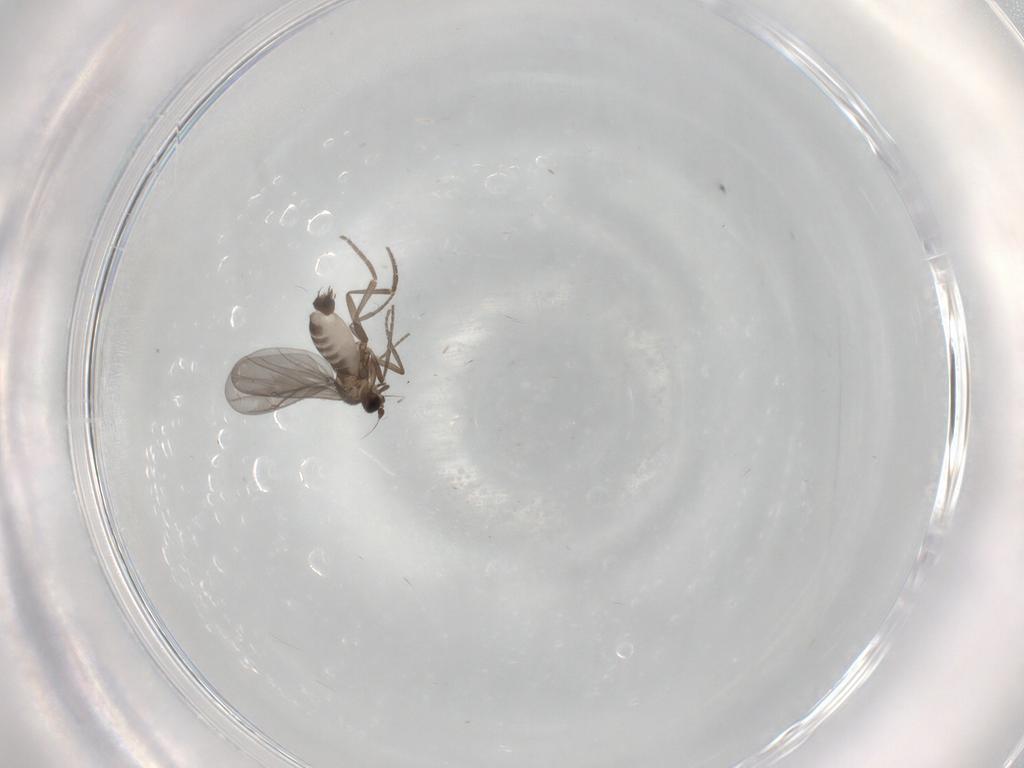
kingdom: Animalia
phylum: Arthropoda
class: Insecta
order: Diptera
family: Phoridae
